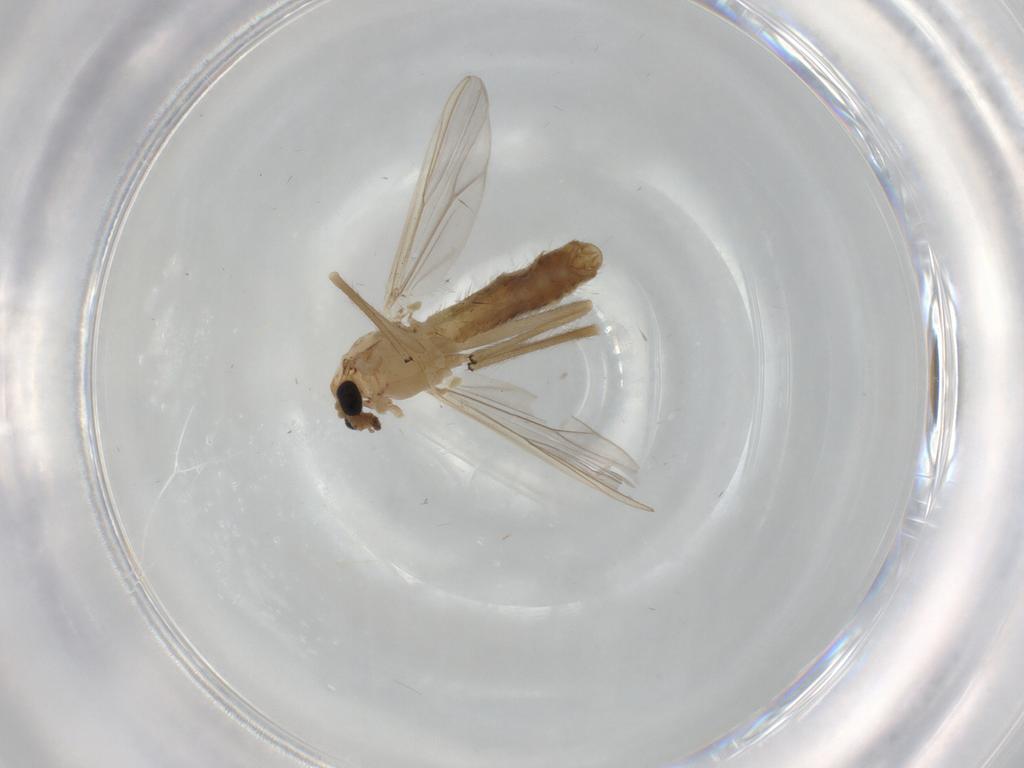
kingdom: Animalia
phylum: Arthropoda
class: Insecta
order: Diptera
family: Chironomidae
